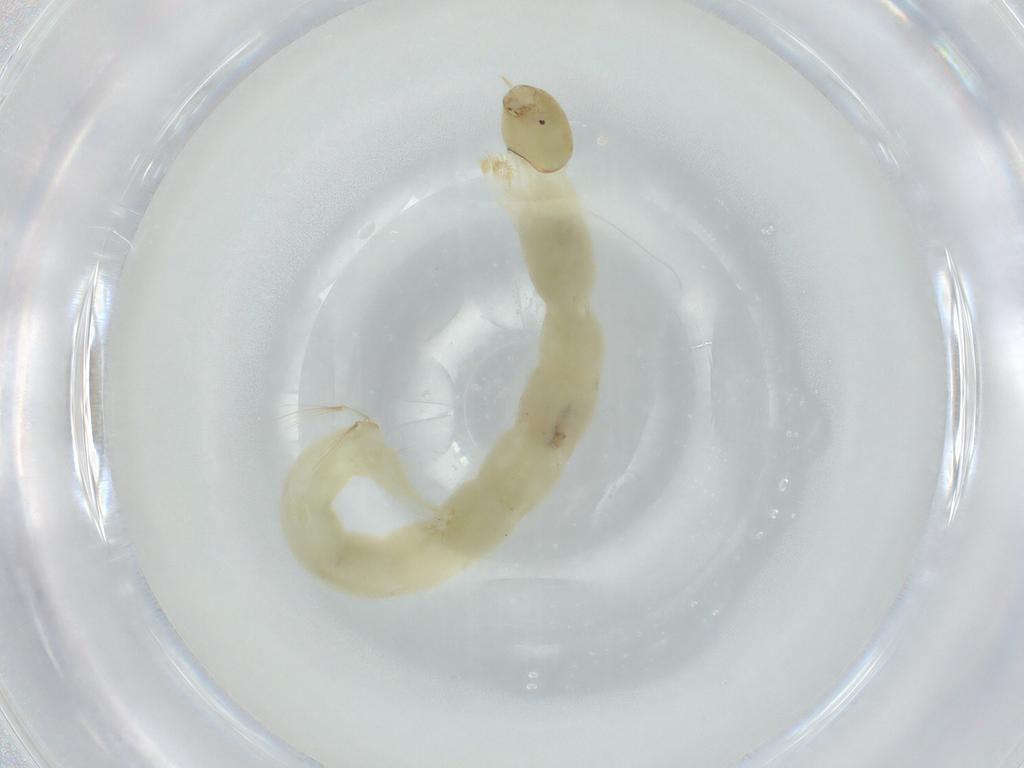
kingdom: Animalia
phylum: Arthropoda
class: Insecta
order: Diptera
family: Chironomidae
